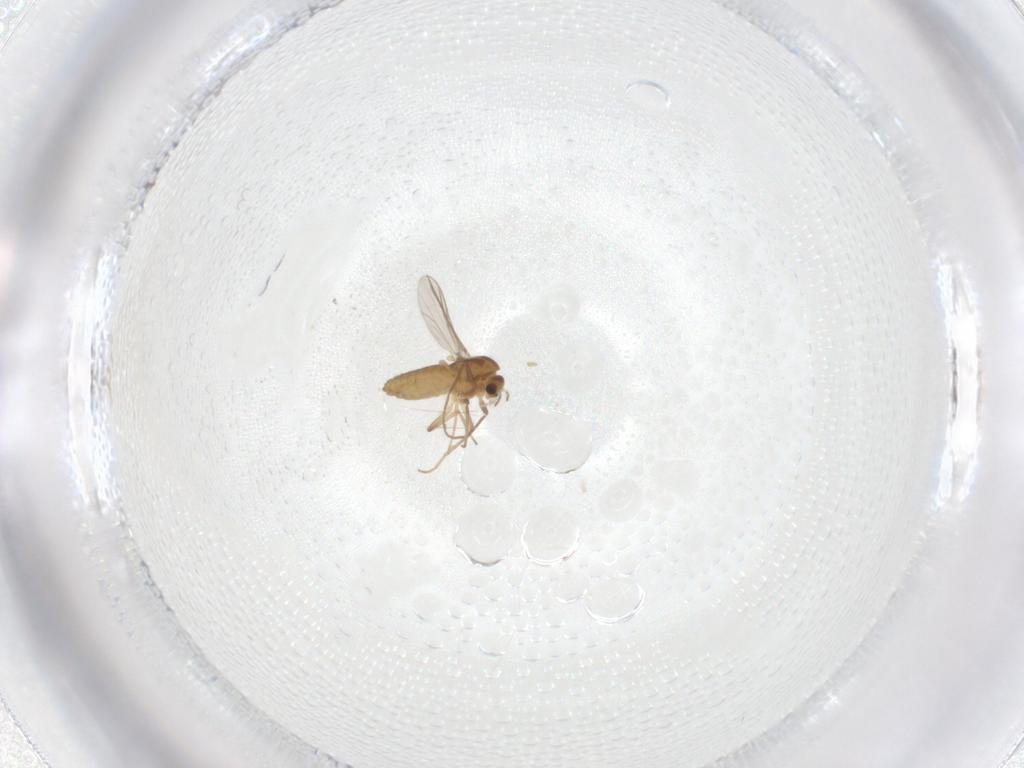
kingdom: Animalia
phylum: Arthropoda
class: Insecta
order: Diptera
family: Chironomidae
